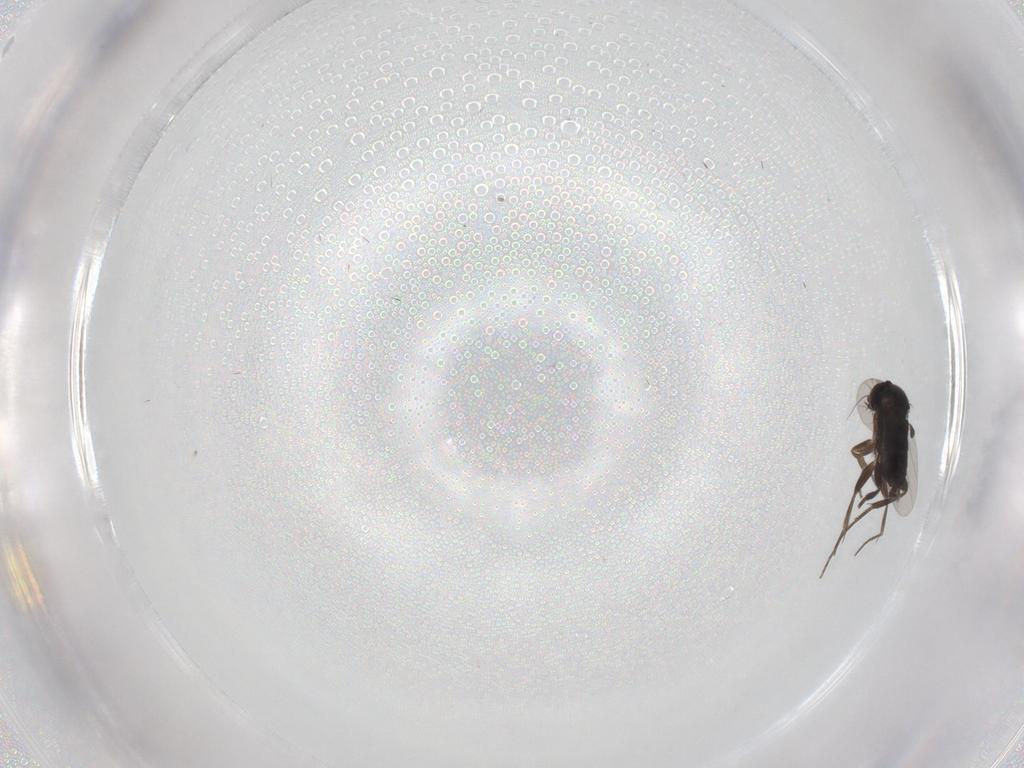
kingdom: Animalia
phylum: Arthropoda
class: Insecta
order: Diptera
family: Phoridae
